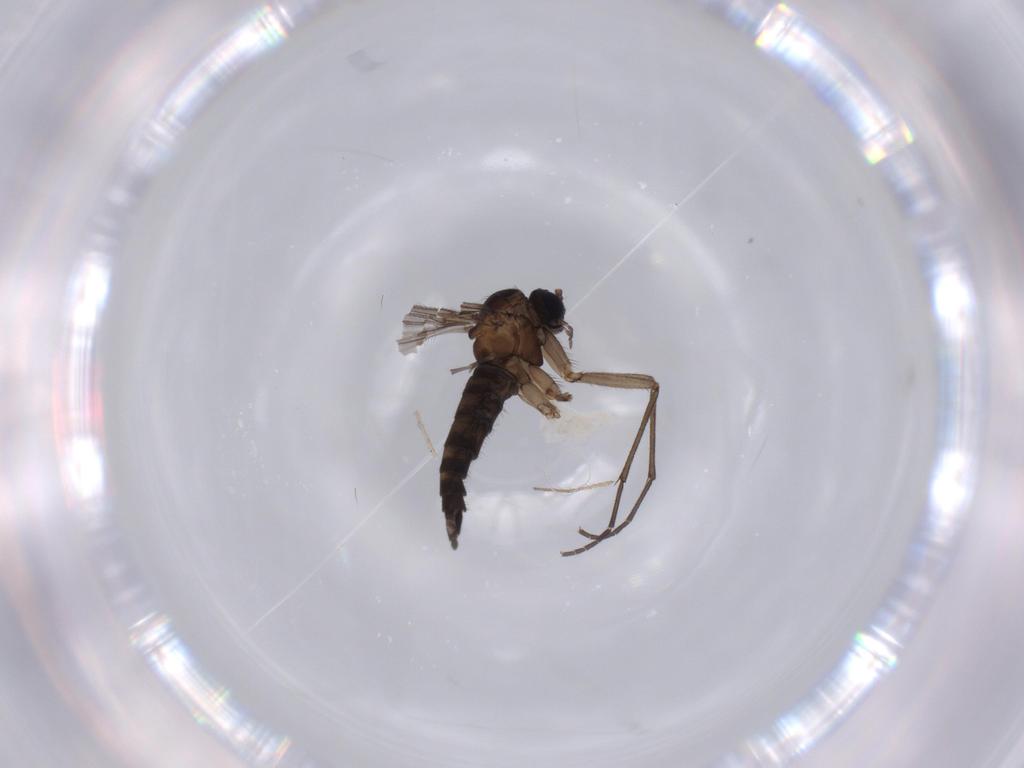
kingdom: Animalia
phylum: Arthropoda
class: Insecta
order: Diptera
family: Sciaridae
